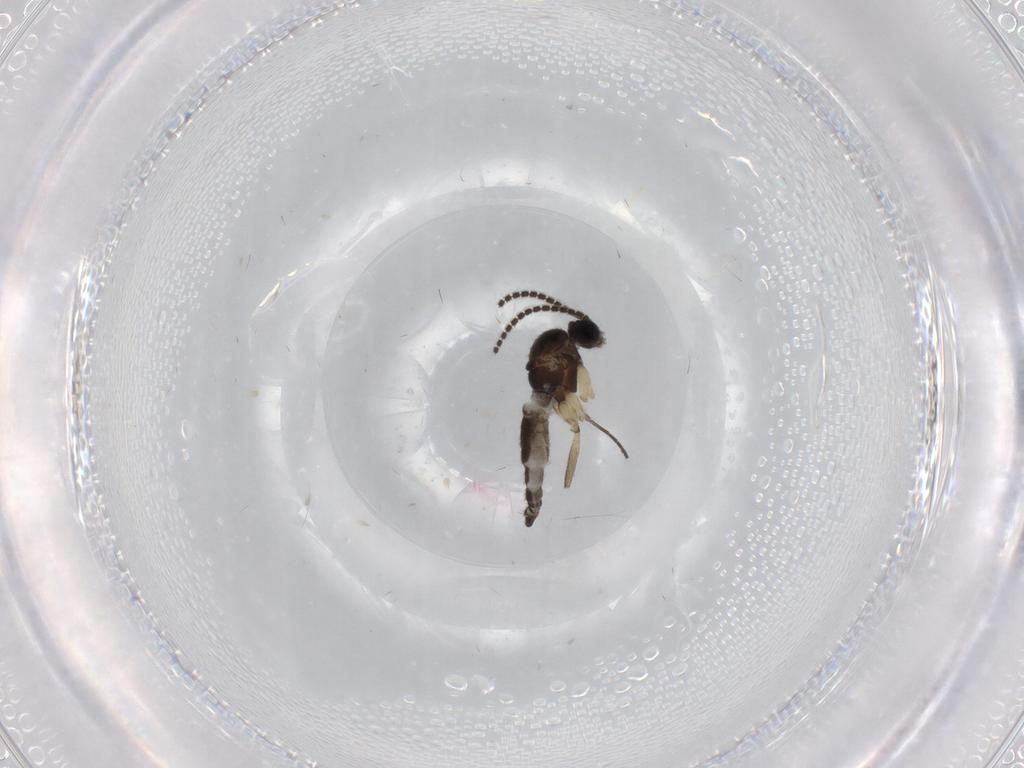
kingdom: Animalia
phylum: Arthropoda
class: Insecta
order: Diptera
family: Sciaridae
